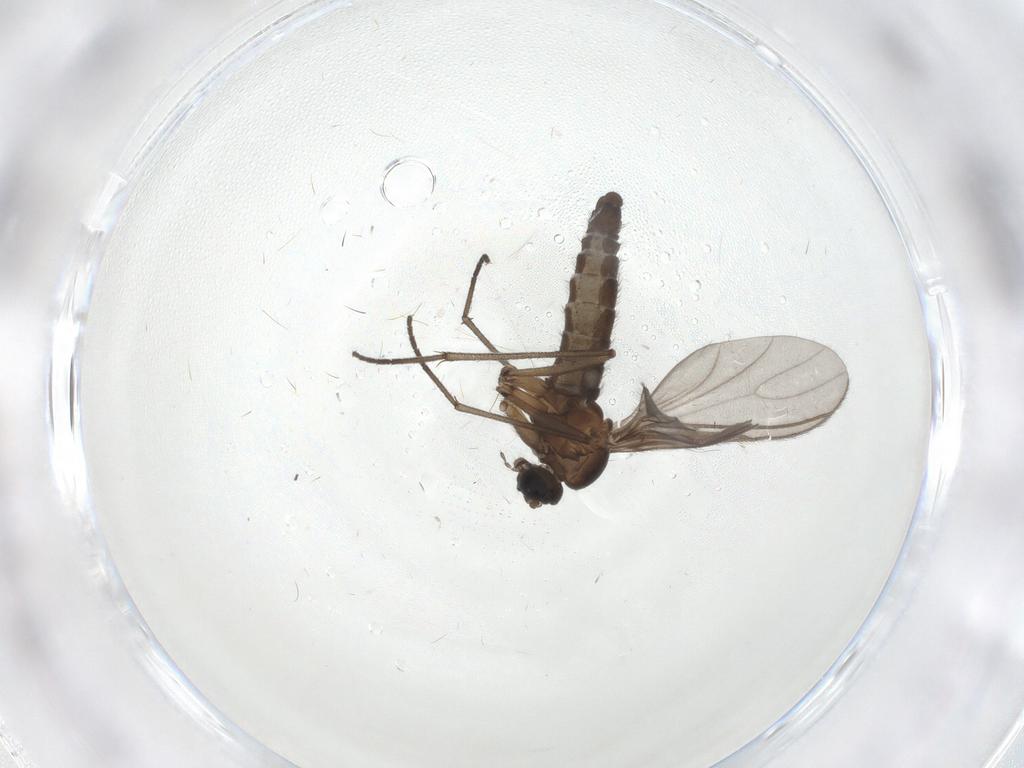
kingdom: Animalia
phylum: Arthropoda
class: Insecta
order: Diptera
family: Sciaridae
